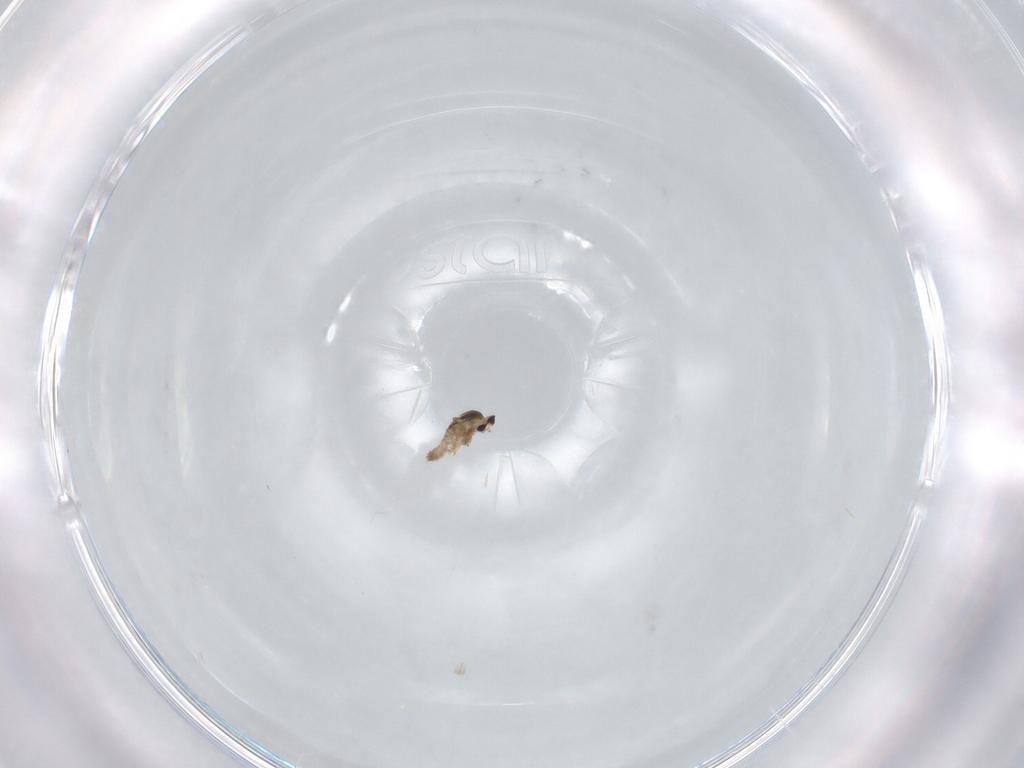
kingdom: Animalia
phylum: Arthropoda
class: Insecta
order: Diptera
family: Cecidomyiidae
